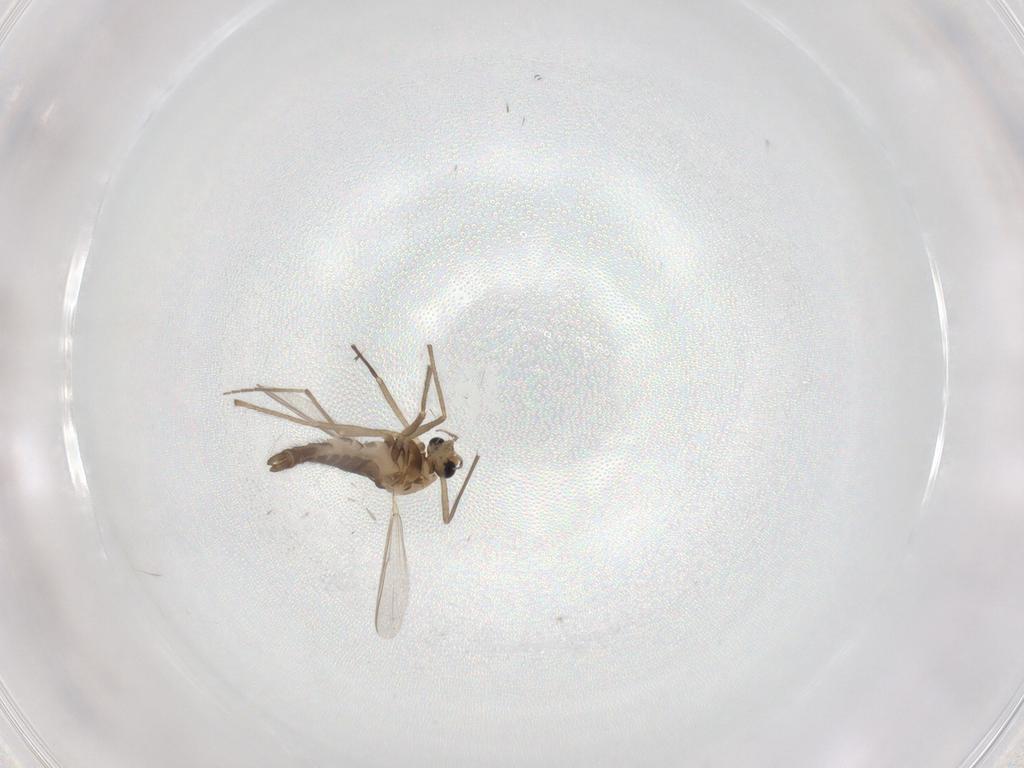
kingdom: Animalia
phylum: Arthropoda
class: Insecta
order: Diptera
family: Chironomidae
